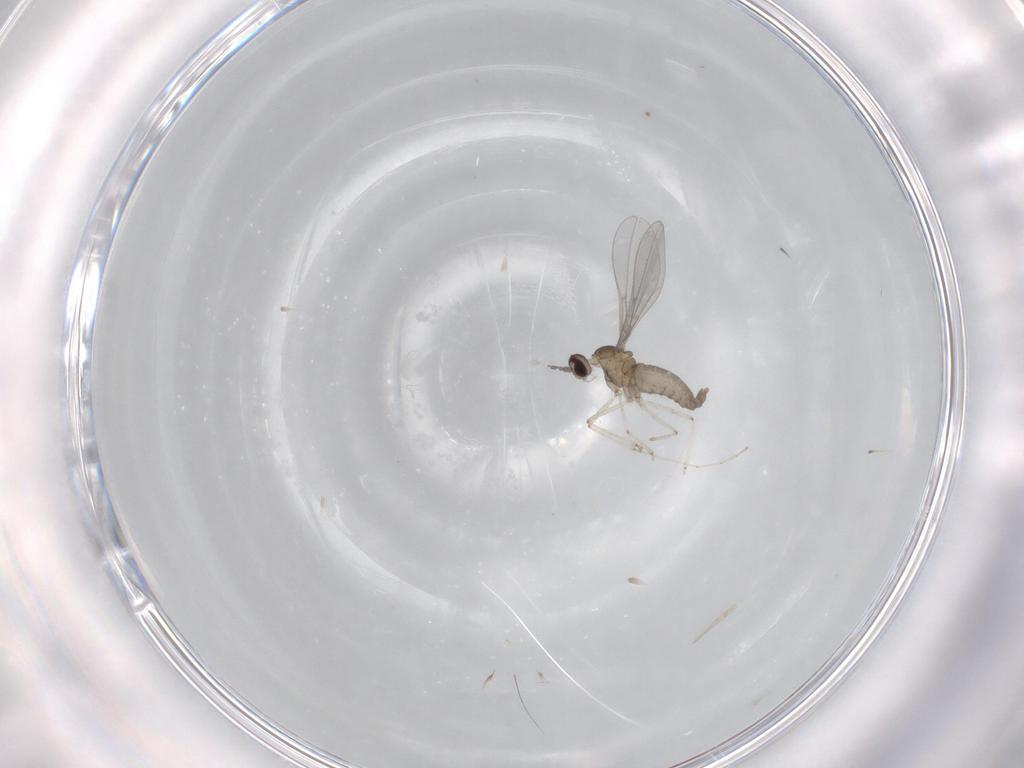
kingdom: Animalia
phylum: Arthropoda
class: Insecta
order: Diptera
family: Cecidomyiidae
